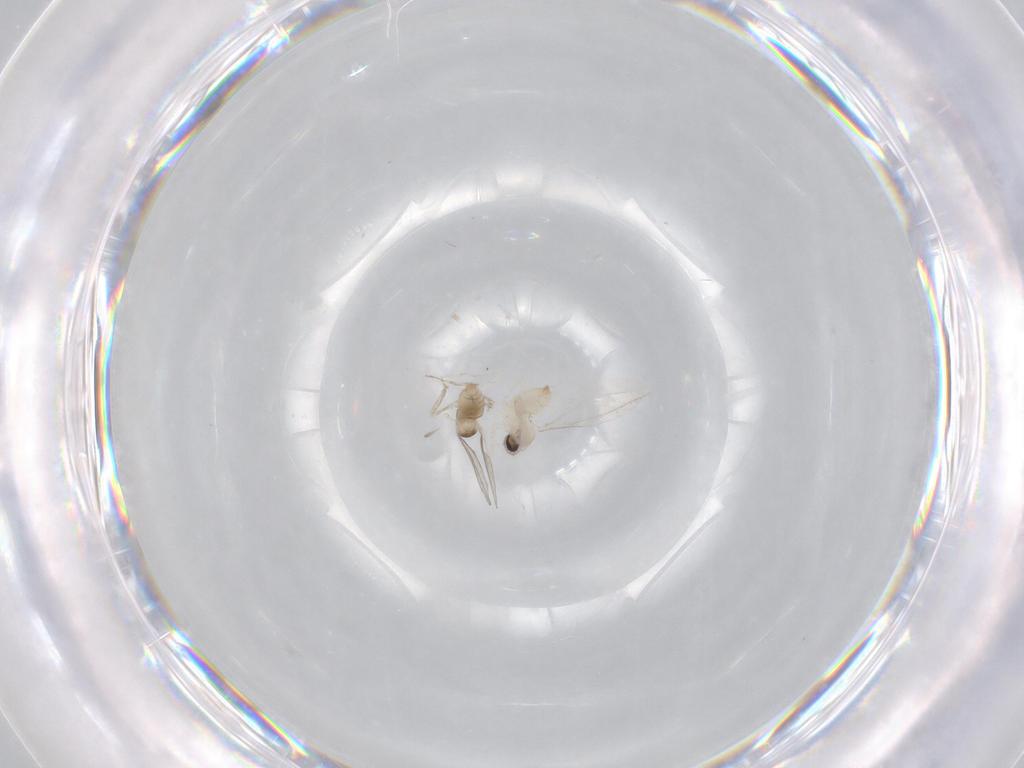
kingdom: Animalia
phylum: Arthropoda
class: Insecta
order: Diptera
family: Cecidomyiidae
